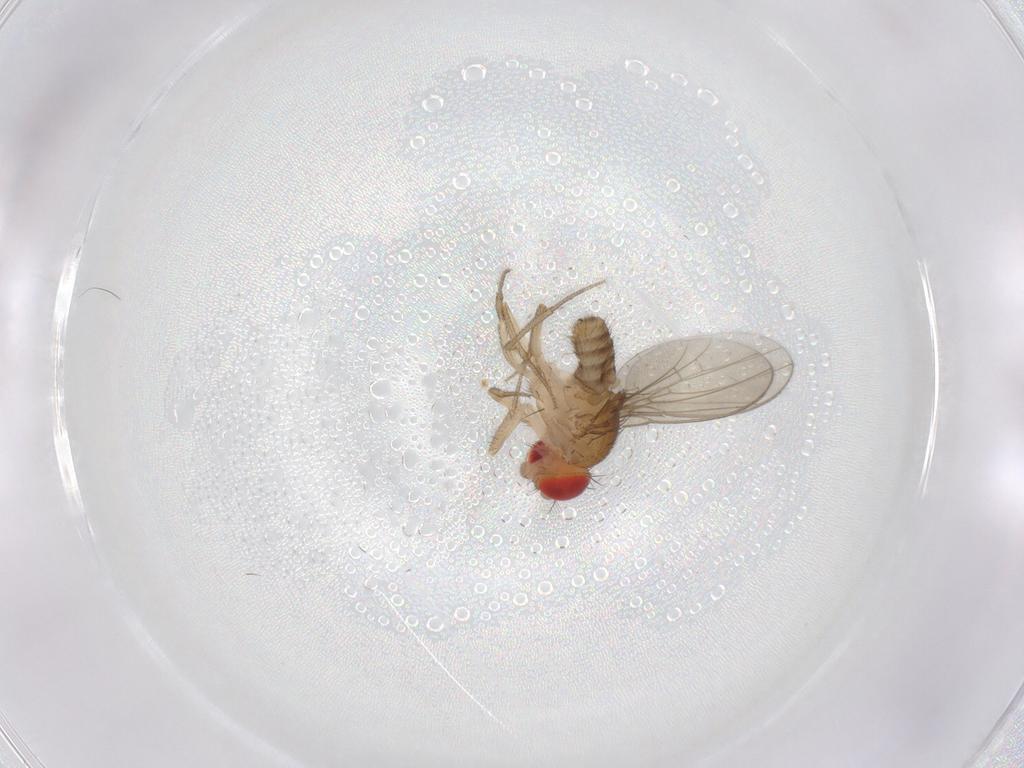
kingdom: Animalia
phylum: Arthropoda
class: Insecta
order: Diptera
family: Drosophilidae
